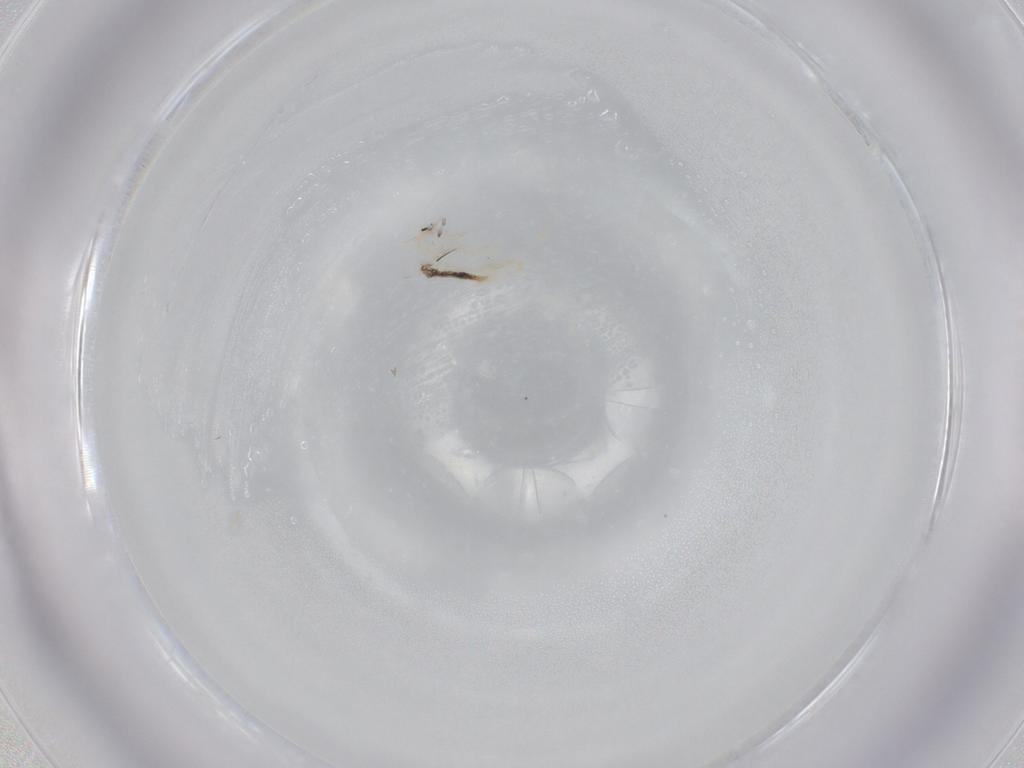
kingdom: Animalia
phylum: Arthropoda
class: Collembola
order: Entomobryomorpha
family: Entomobryidae
